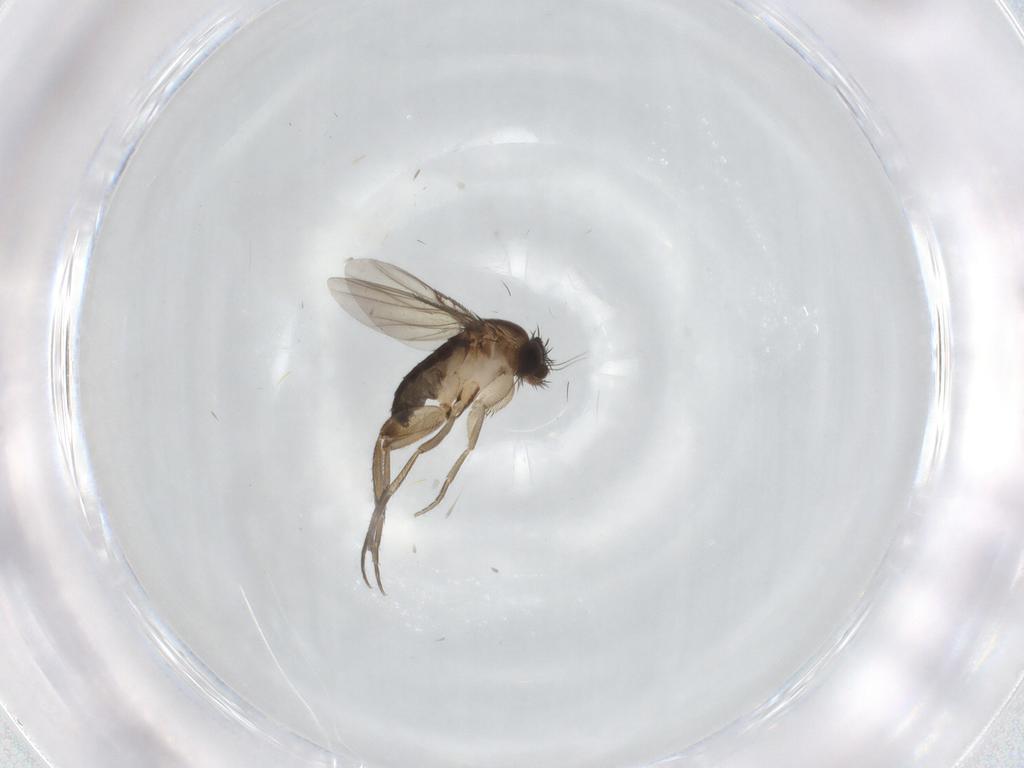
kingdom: Animalia
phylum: Arthropoda
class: Insecta
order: Diptera
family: Phoridae
